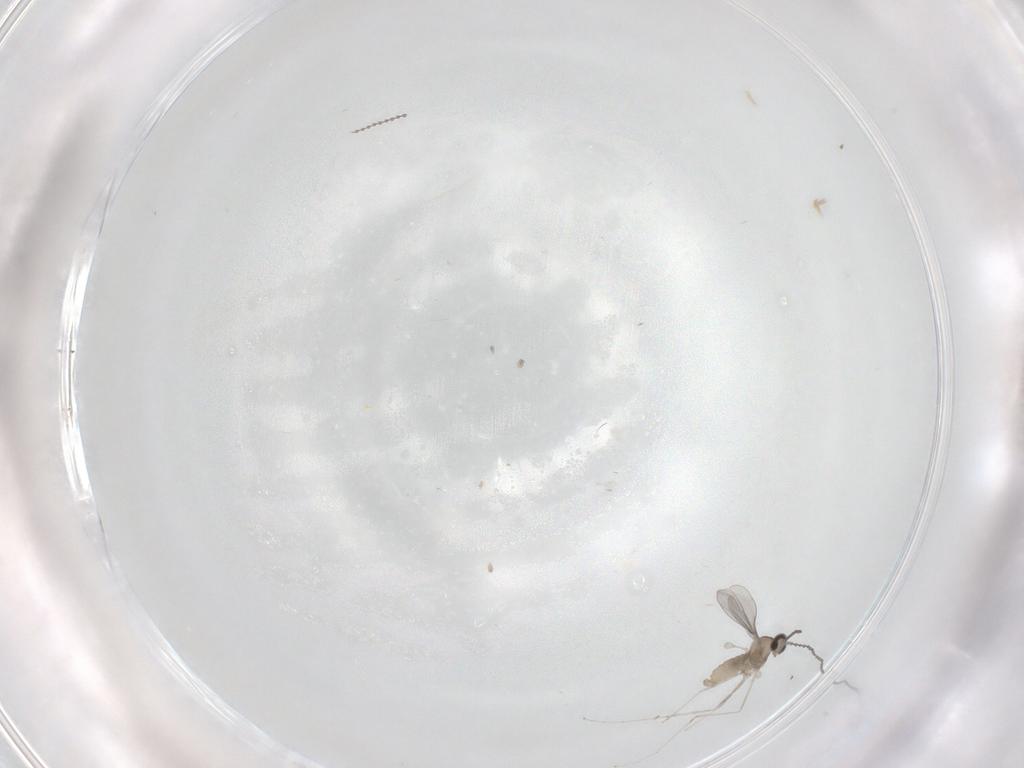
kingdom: Animalia
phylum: Arthropoda
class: Insecta
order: Diptera
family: Cecidomyiidae
